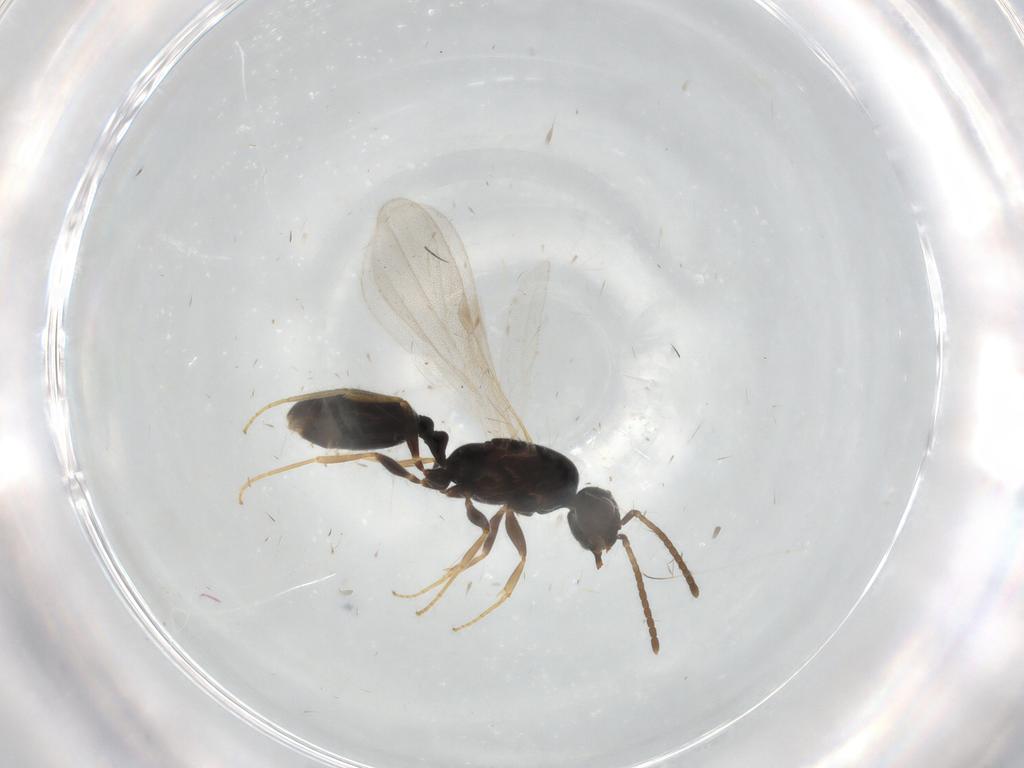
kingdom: Animalia
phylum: Arthropoda
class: Insecta
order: Hymenoptera
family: Formicidae
